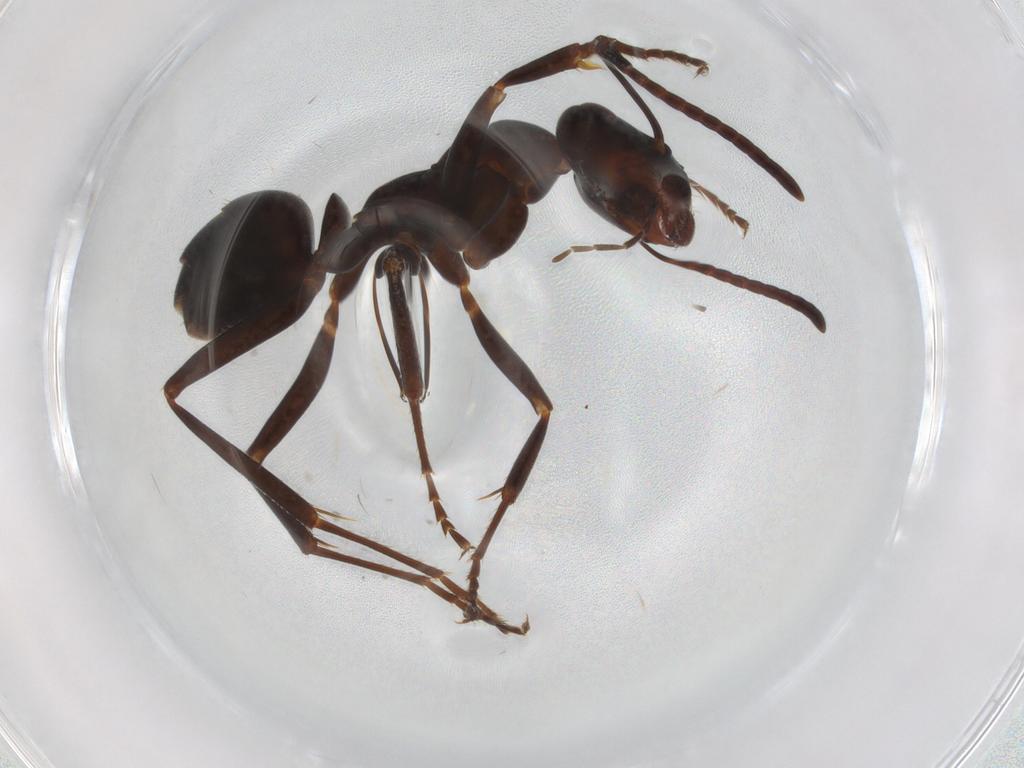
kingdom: Animalia
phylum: Arthropoda
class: Insecta
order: Hymenoptera
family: Formicidae
